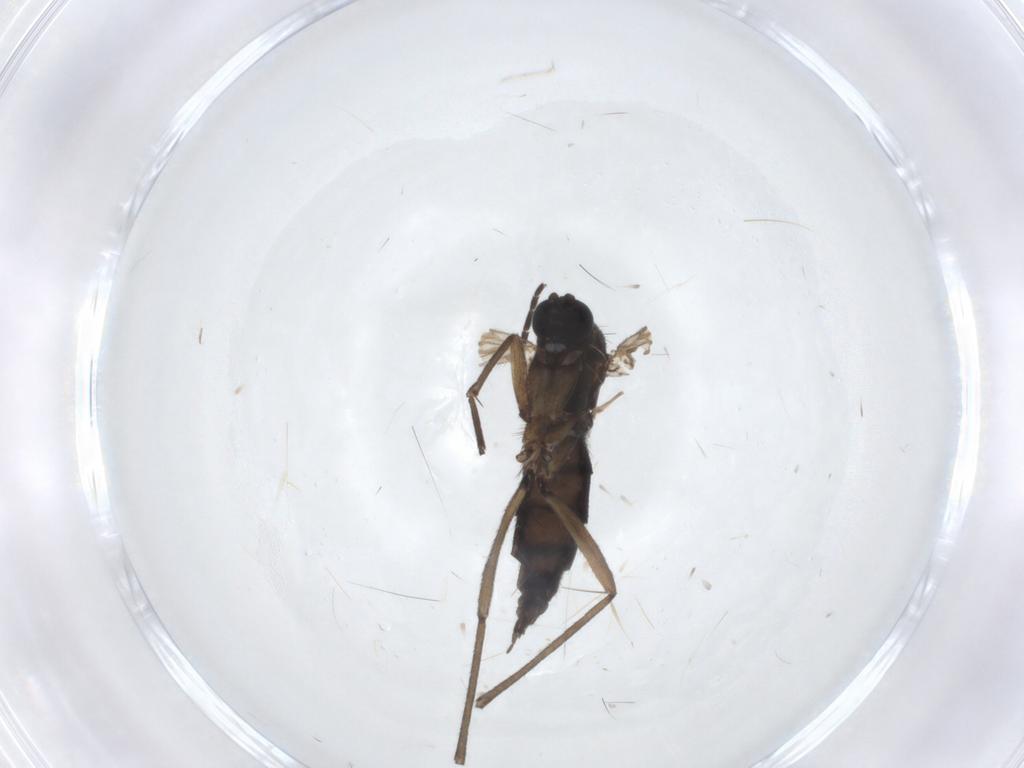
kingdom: Animalia
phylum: Arthropoda
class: Insecta
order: Diptera
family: Sciaridae
